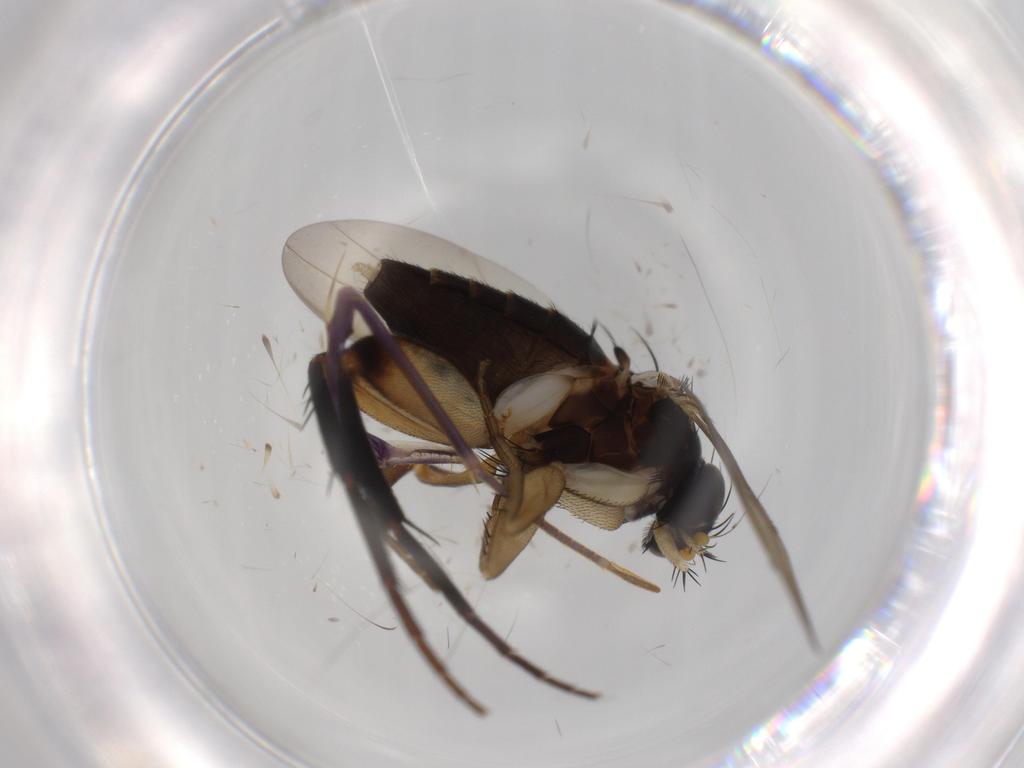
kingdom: Animalia
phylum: Arthropoda
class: Insecta
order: Diptera
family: Phoridae
